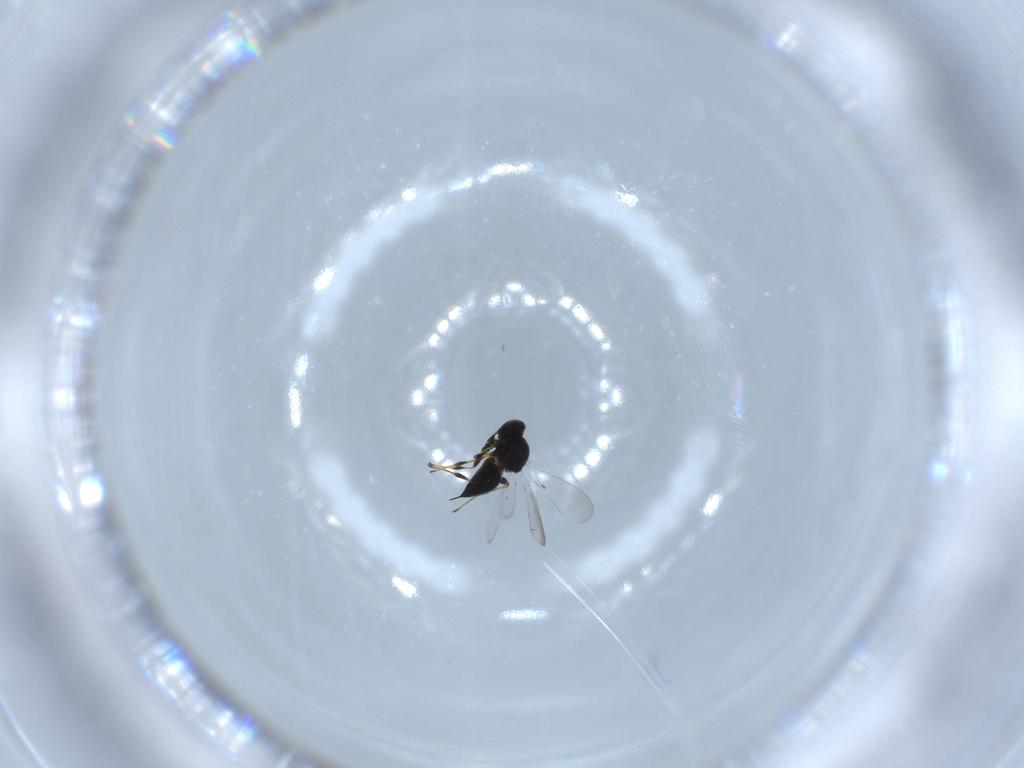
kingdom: Animalia
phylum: Arthropoda
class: Insecta
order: Hymenoptera
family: Platygastridae
